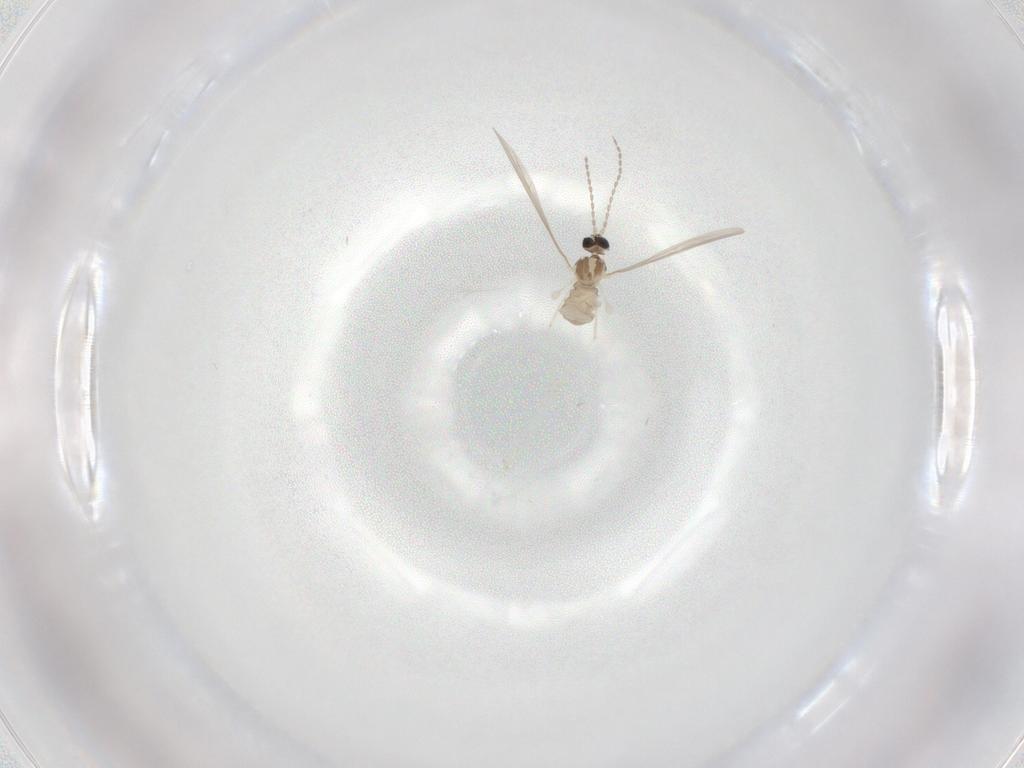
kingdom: Animalia
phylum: Arthropoda
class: Insecta
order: Diptera
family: Cecidomyiidae
